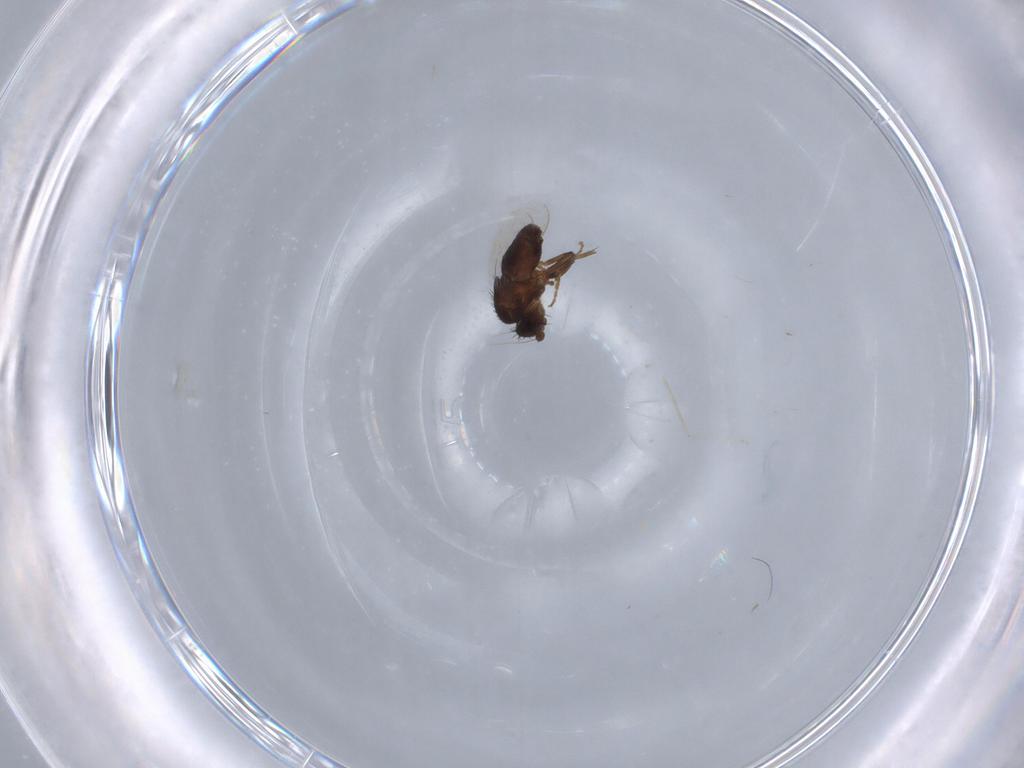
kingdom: Animalia
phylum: Arthropoda
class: Insecta
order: Diptera
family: Sphaeroceridae
